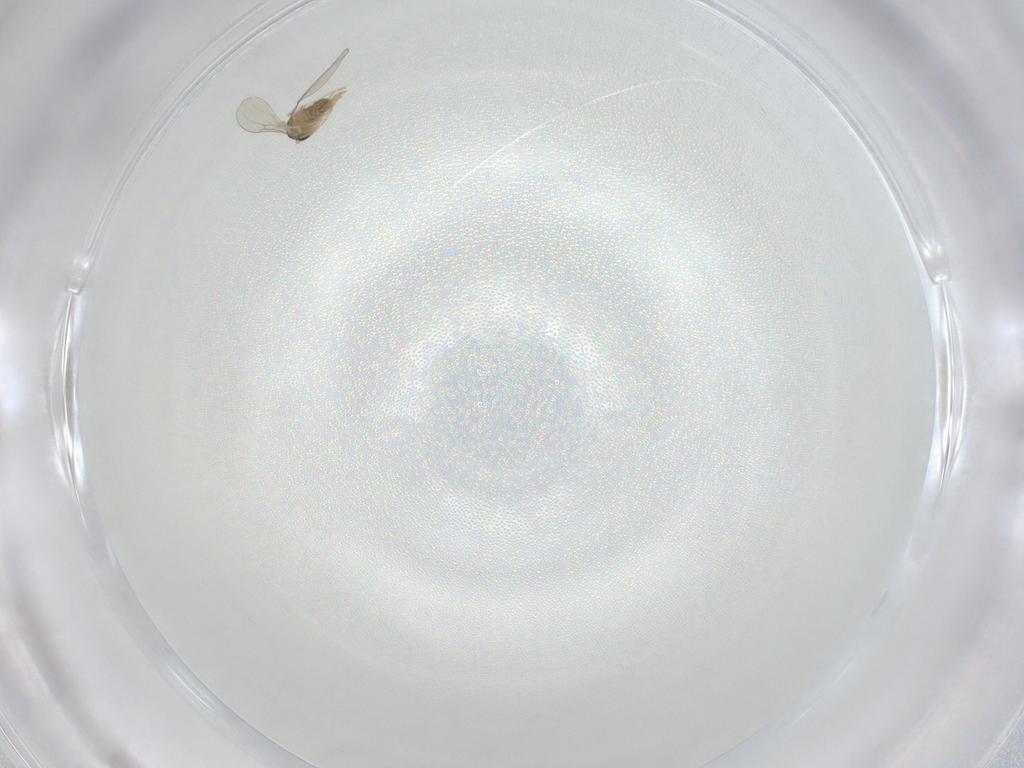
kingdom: Animalia
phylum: Arthropoda
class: Insecta
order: Diptera
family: Cecidomyiidae
